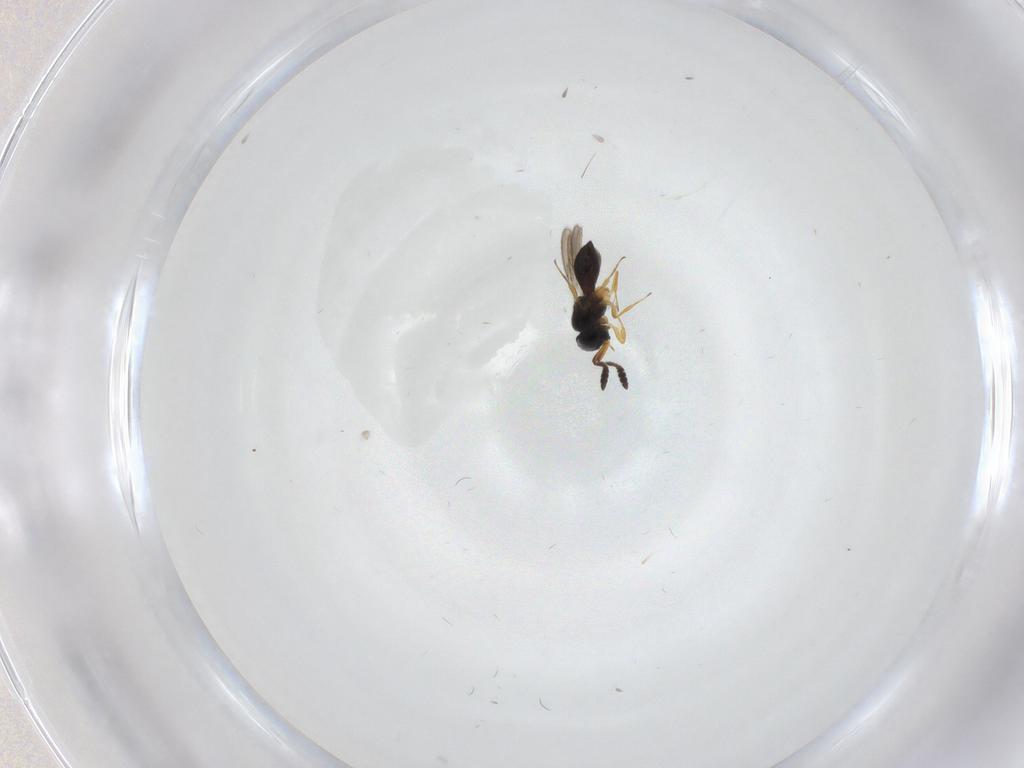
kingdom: Animalia
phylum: Arthropoda
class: Insecta
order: Hymenoptera
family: Scelionidae
